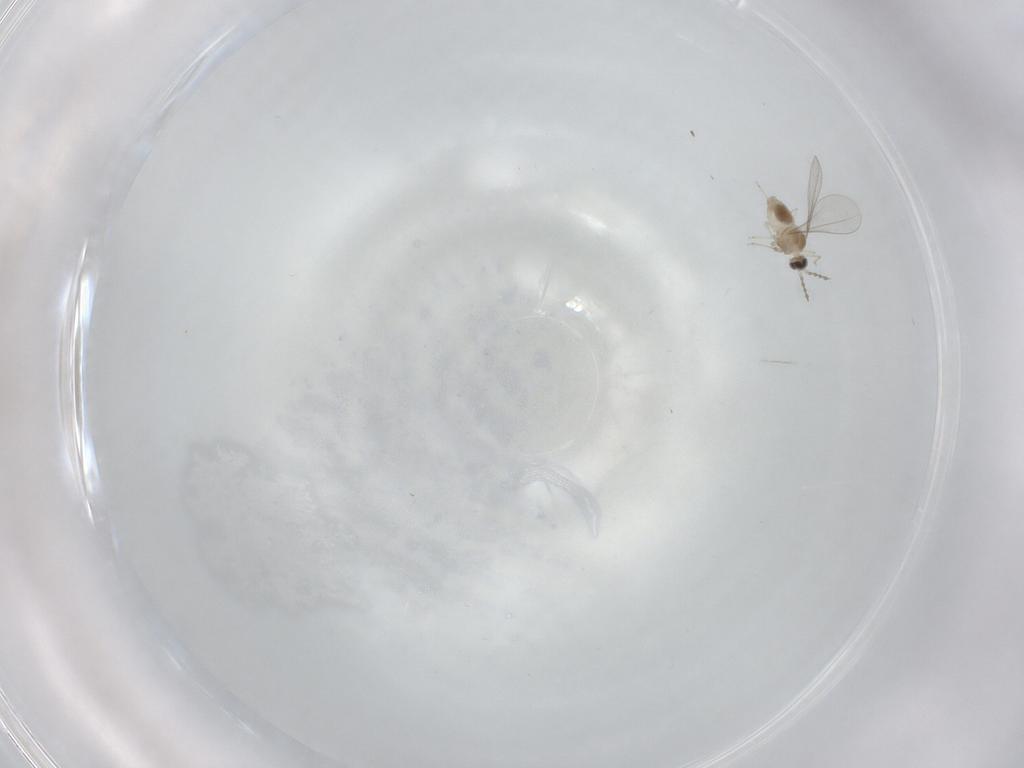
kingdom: Animalia
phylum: Arthropoda
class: Insecta
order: Diptera
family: Cecidomyiidae
